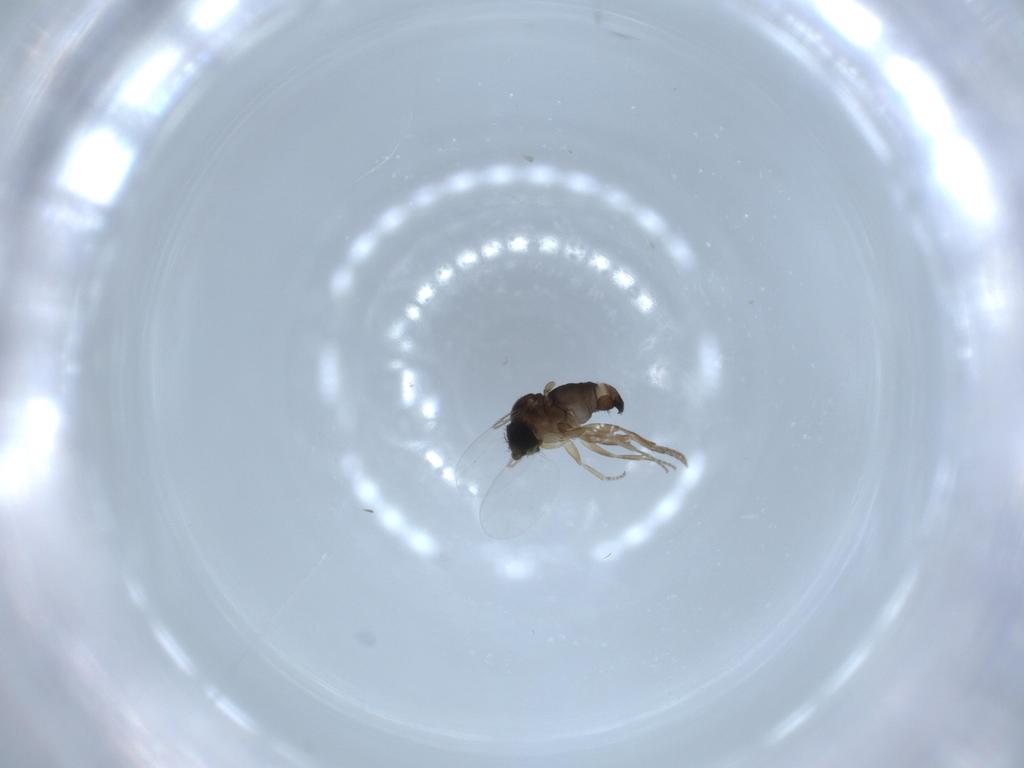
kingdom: Animalia
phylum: Arthropoda
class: Insecta
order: Diptera
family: Phoridae
